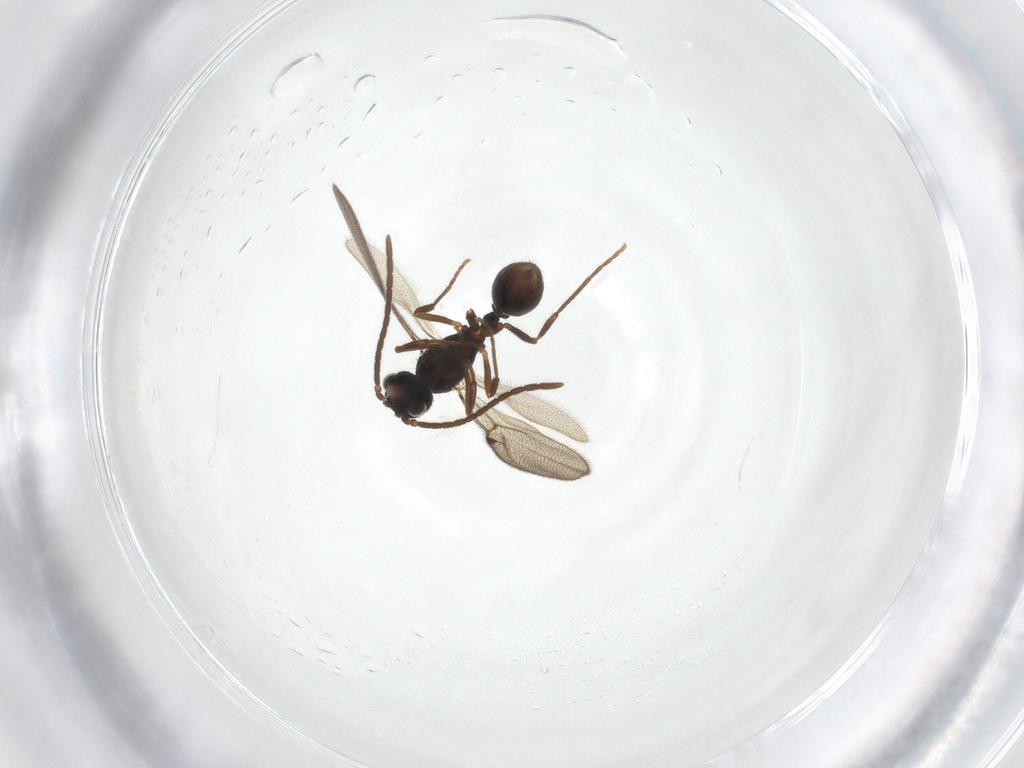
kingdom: Animalia
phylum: Arthropoda
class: Insecta
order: Hymenoptera
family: Formicidae
